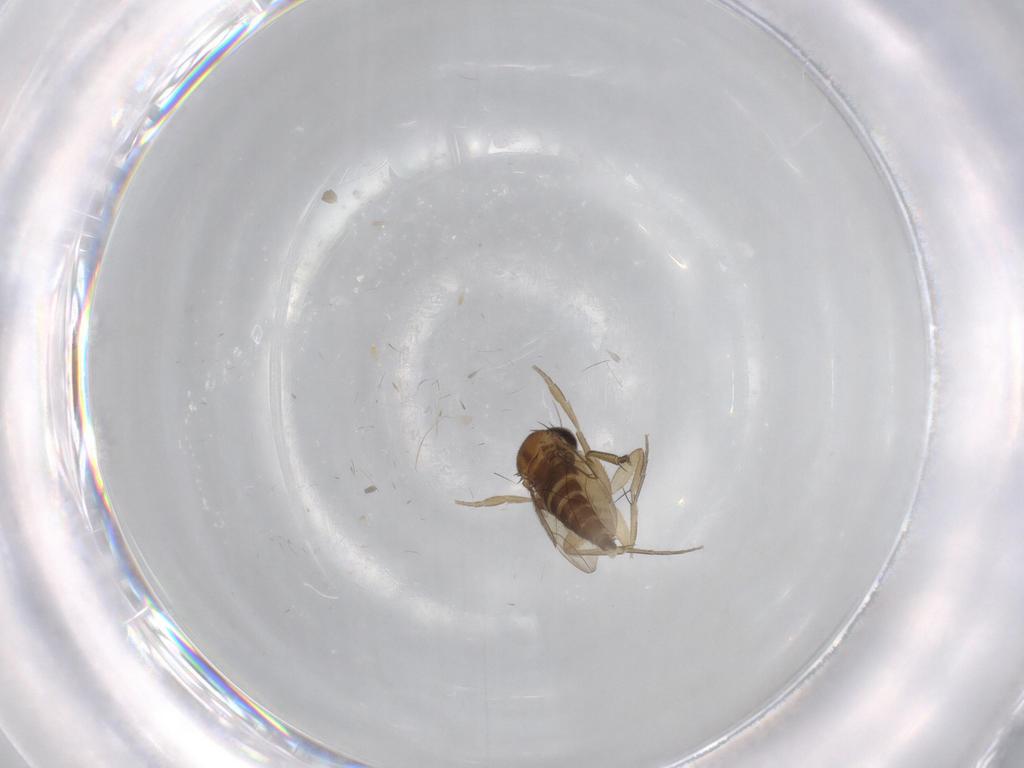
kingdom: Animalia
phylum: Arthropoda
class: Insecta
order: Diptera
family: Phoridae
